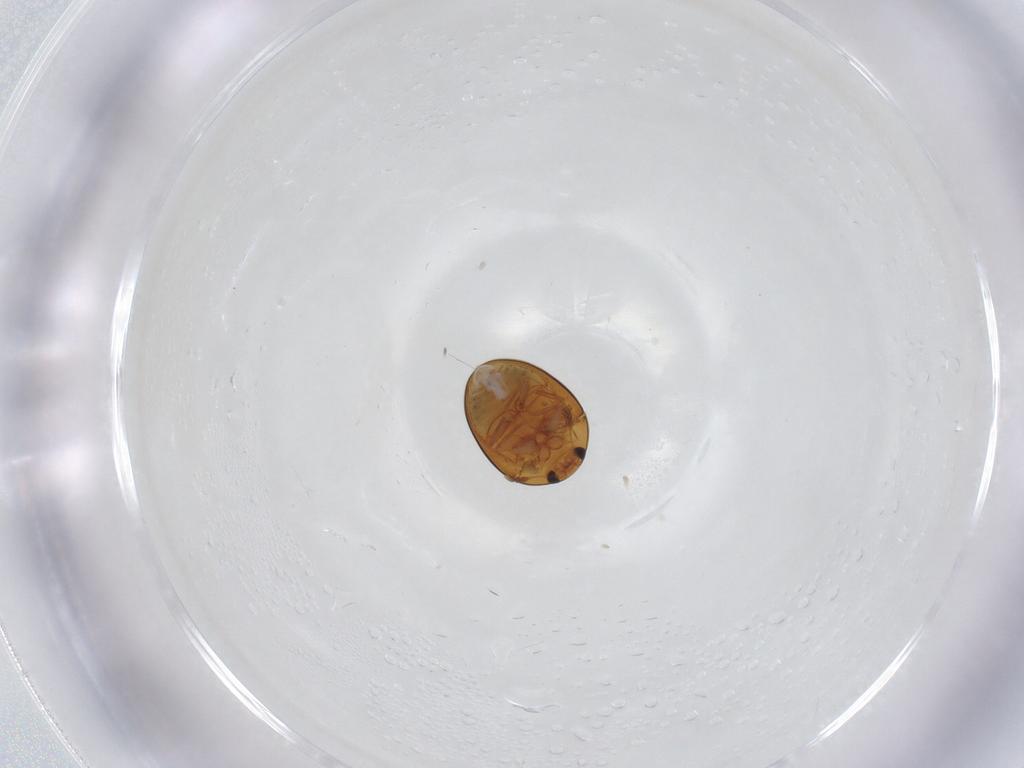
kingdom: Animalia
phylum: Arthropoda
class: Insecta
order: Coleoptera
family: Phalacridae
